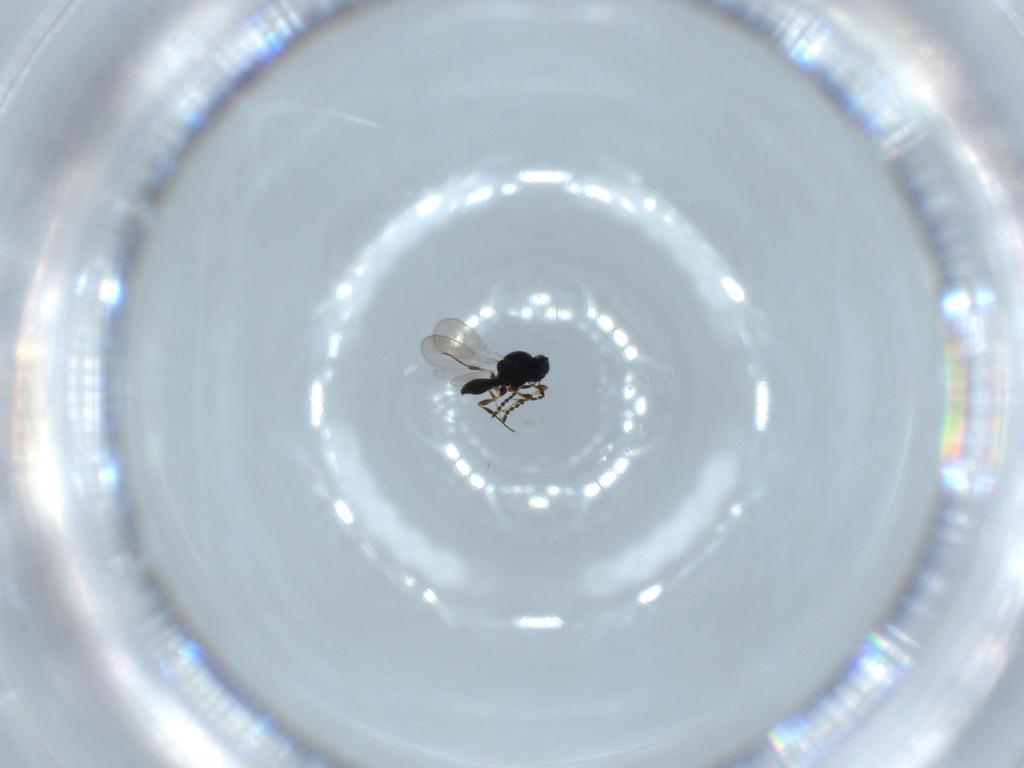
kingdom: Animalia
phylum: Arthropoda
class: Insecta
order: Hymenoptera
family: Platygastridae
